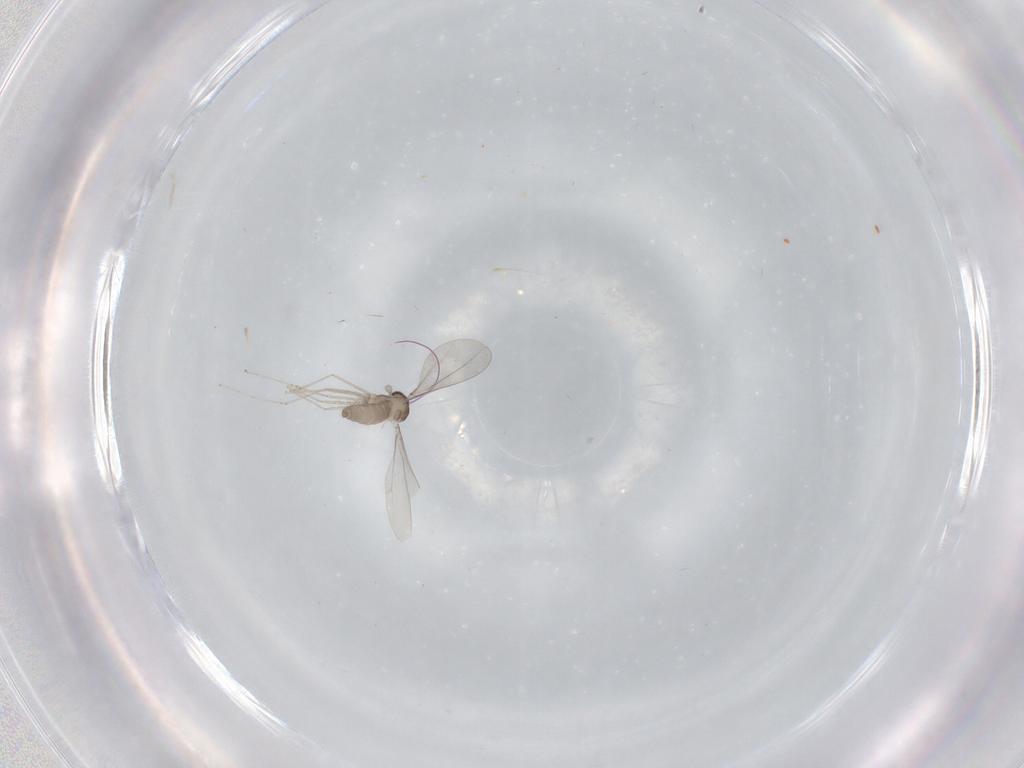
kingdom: Animalia
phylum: Arthropoda
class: Insecta
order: Diptera
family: Cecidomyiidae
